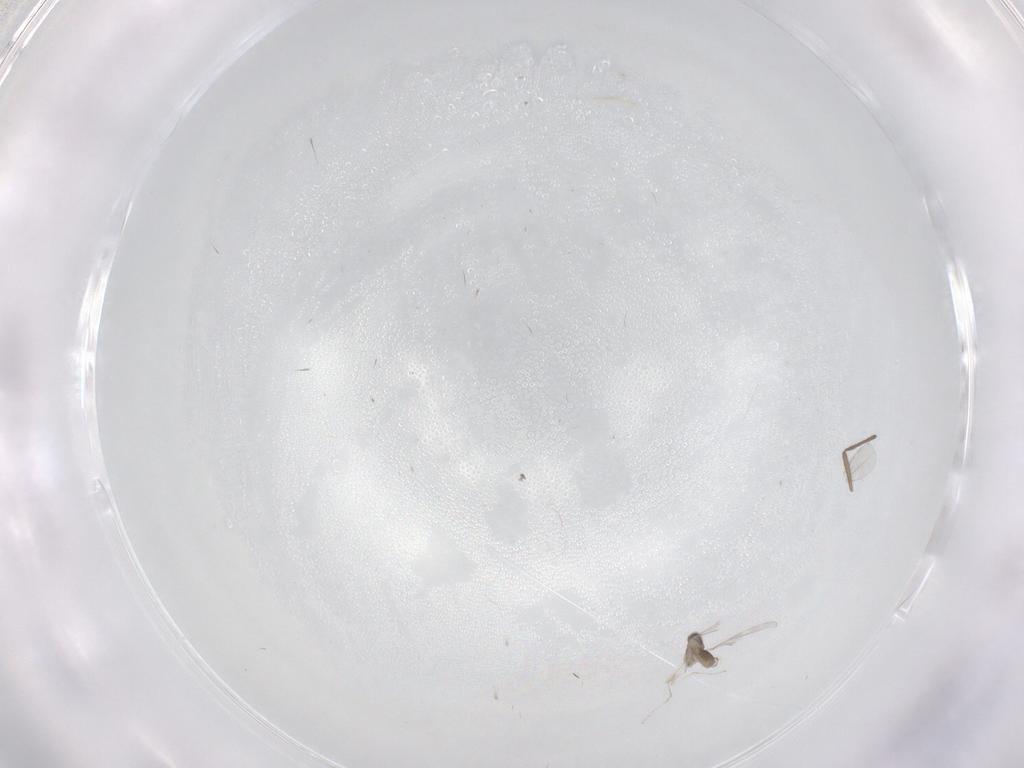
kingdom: Animalia
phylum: Arthropoda
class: Insecta
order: Diptera
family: Chironomidae
